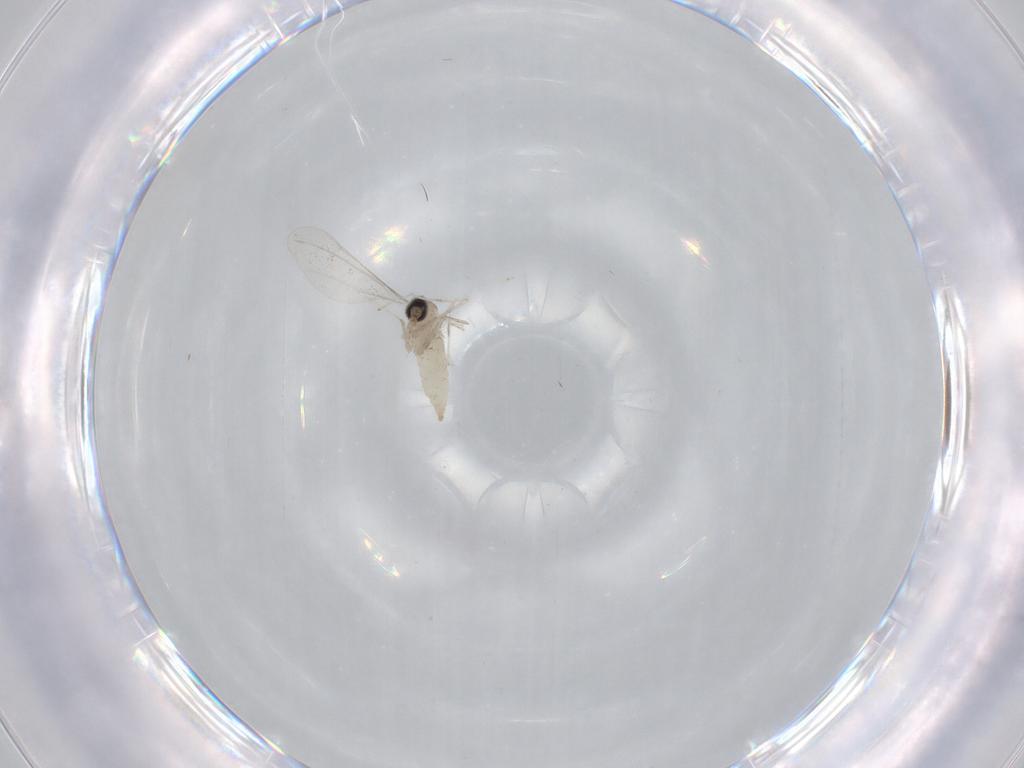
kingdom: Animalia
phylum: Arthropoda
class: Insecta
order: Diptera
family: Cecidomyiidae
